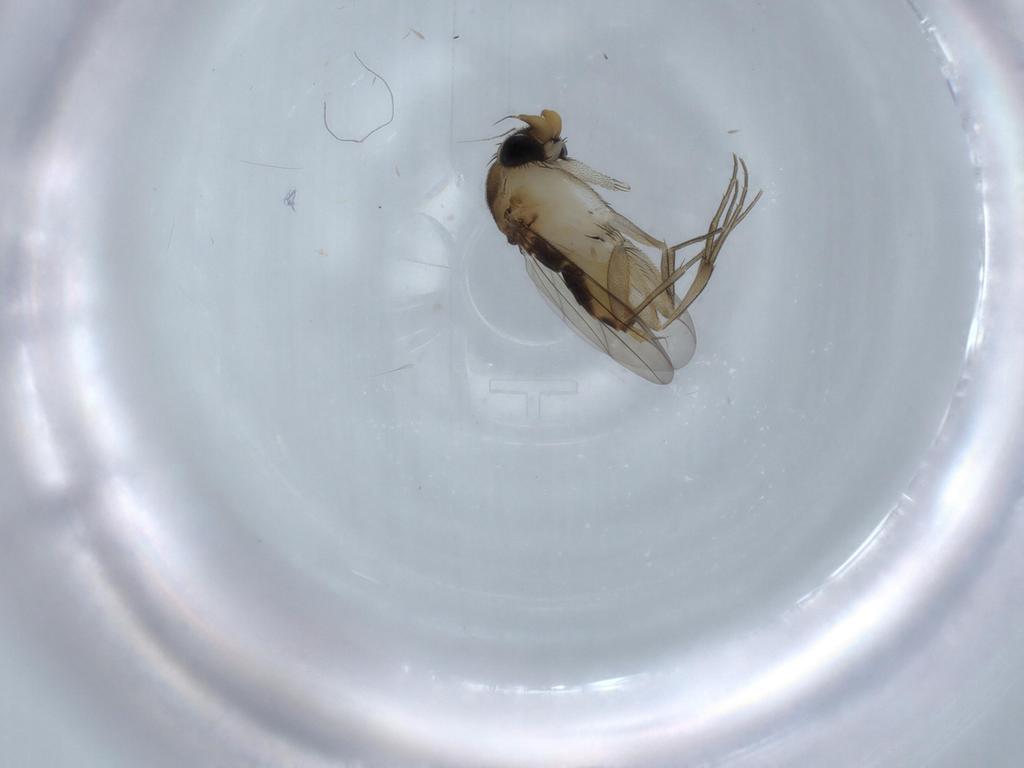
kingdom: Animalia
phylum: Arthropoda
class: Insecta
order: Diptera
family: Phoridae
